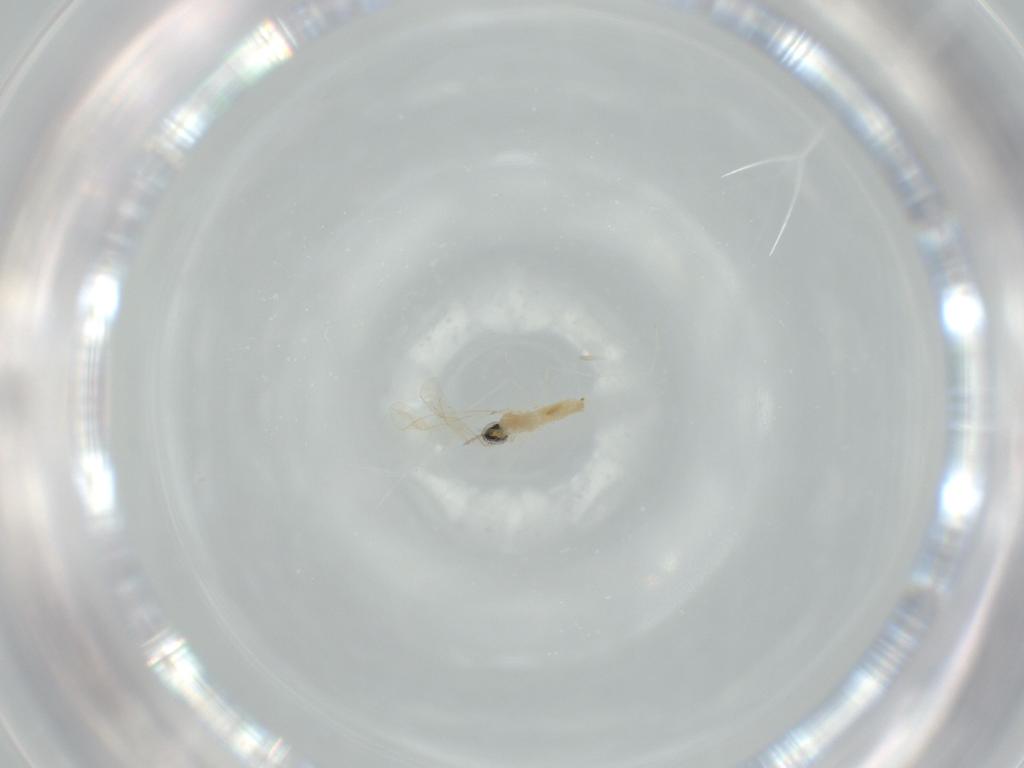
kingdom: Animalia
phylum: Arthropoda
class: Insecta
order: Diptera
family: Cecidomyiidae
